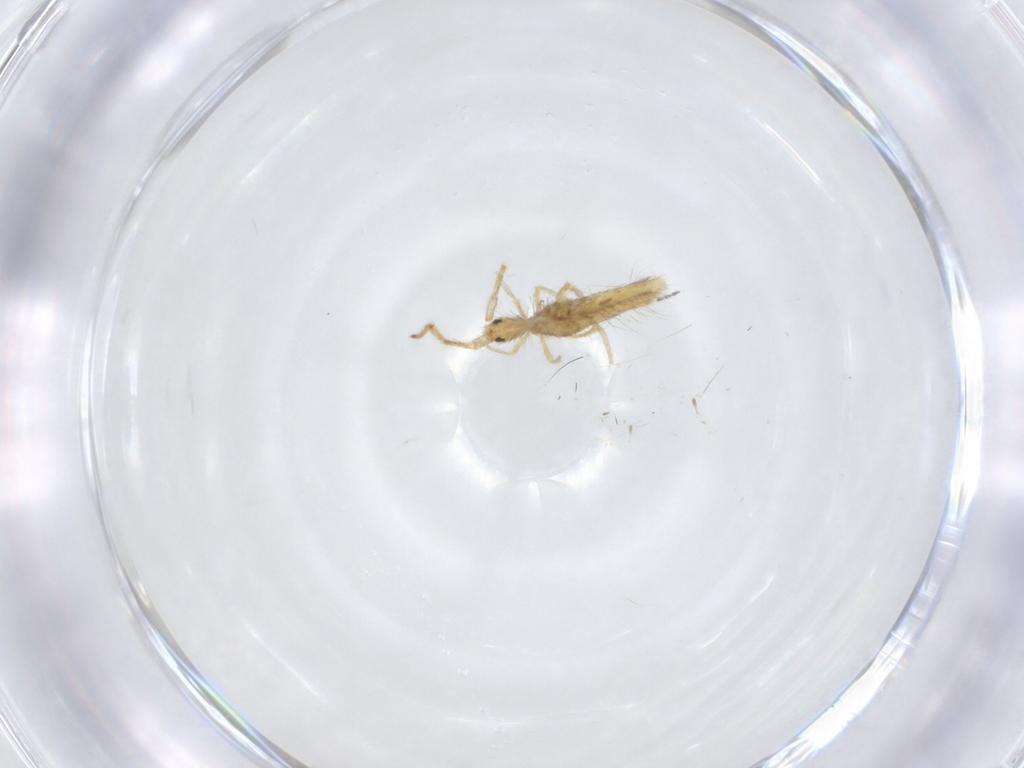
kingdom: Animalia
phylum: Arthropoda
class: Collembola
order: Entomobryomorpha
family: Entomobryidae
